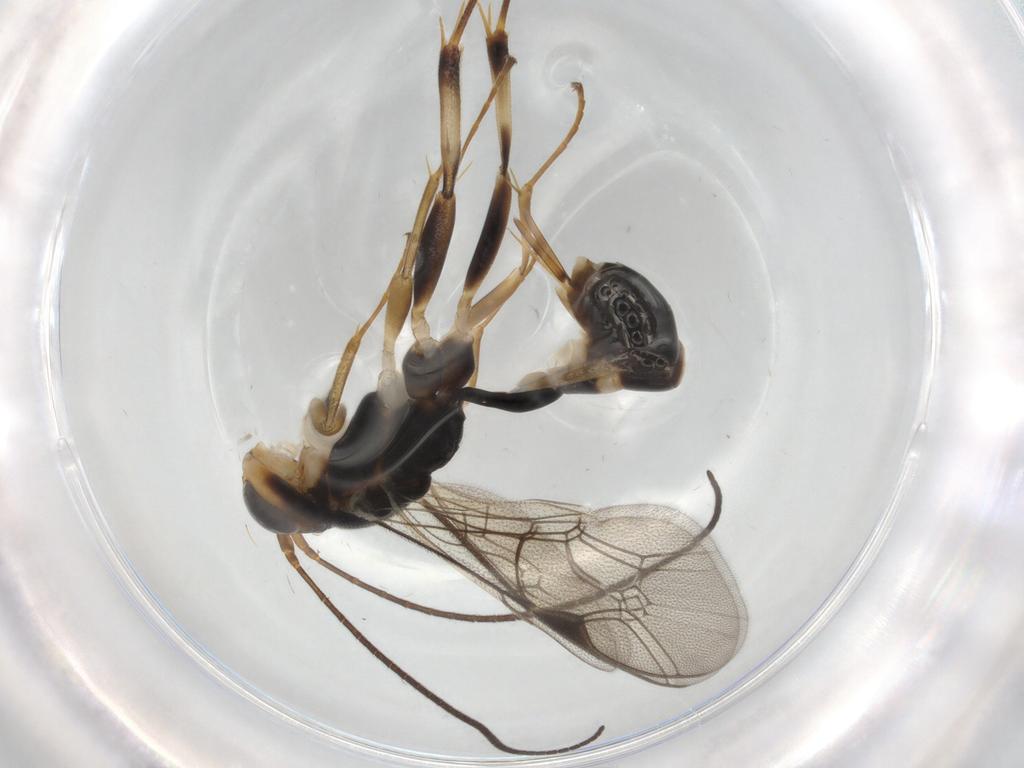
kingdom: Animalia
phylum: Arthropoda
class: Insecta
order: Hymenoptera
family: Ichneumonidae
